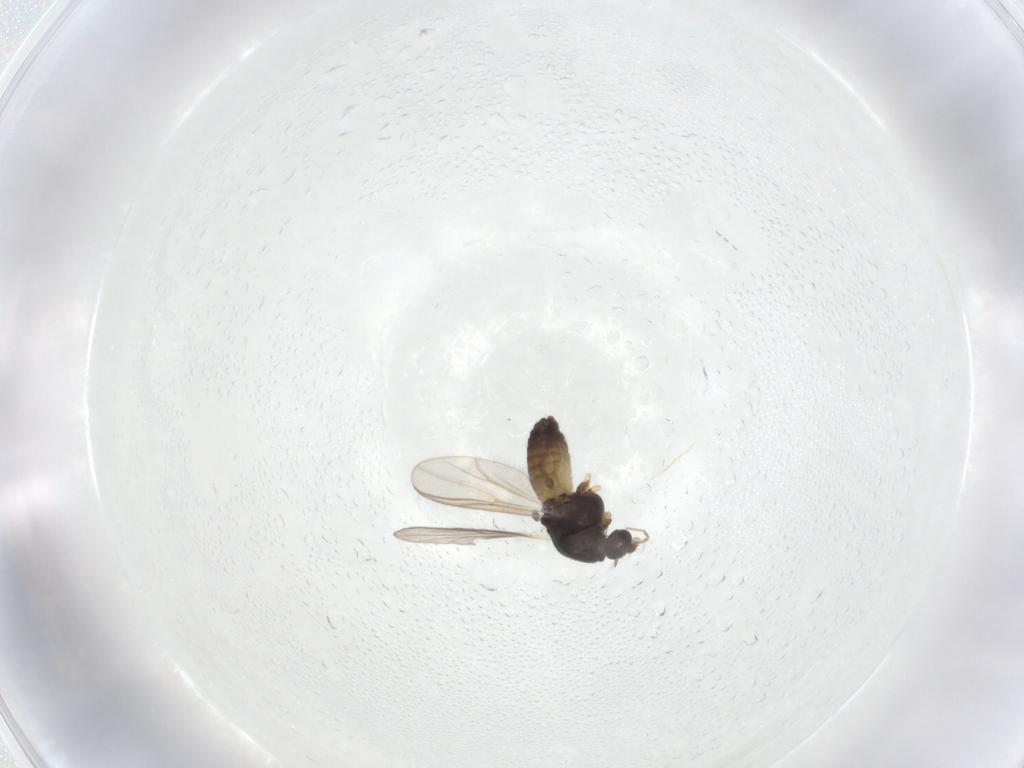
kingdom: Animalia
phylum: Arthropoda
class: Insecta
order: Diptera
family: Chironomidae
